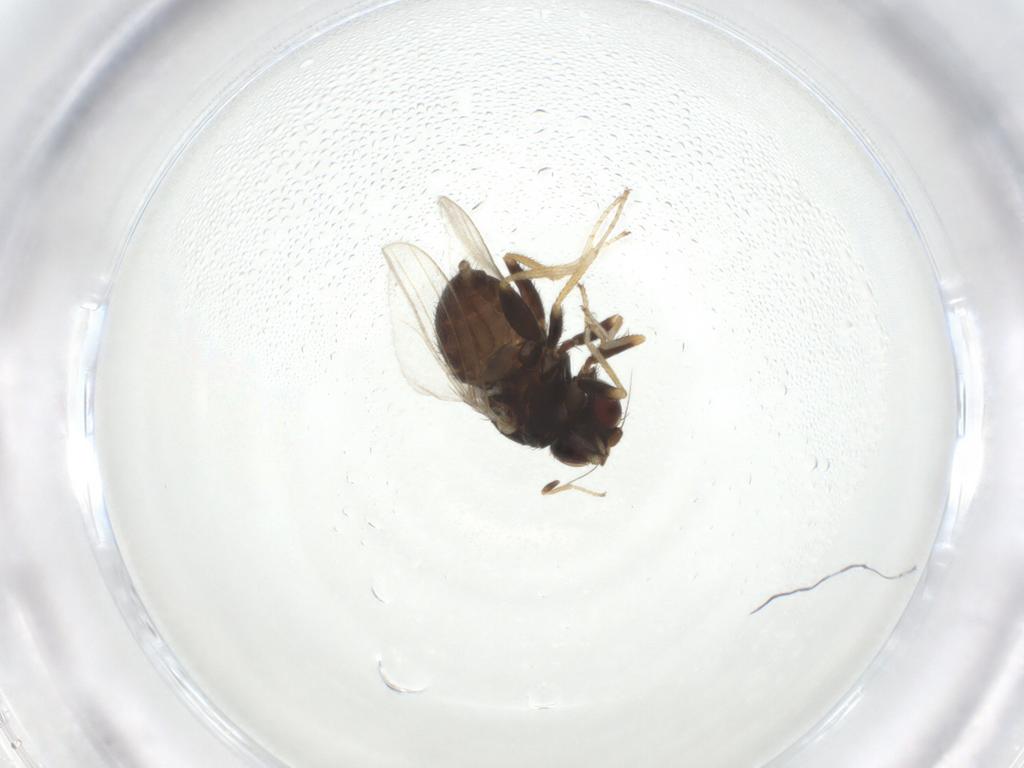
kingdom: Animalia
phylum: Arthropoda
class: Insecta
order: Diptera
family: Chloropidae
